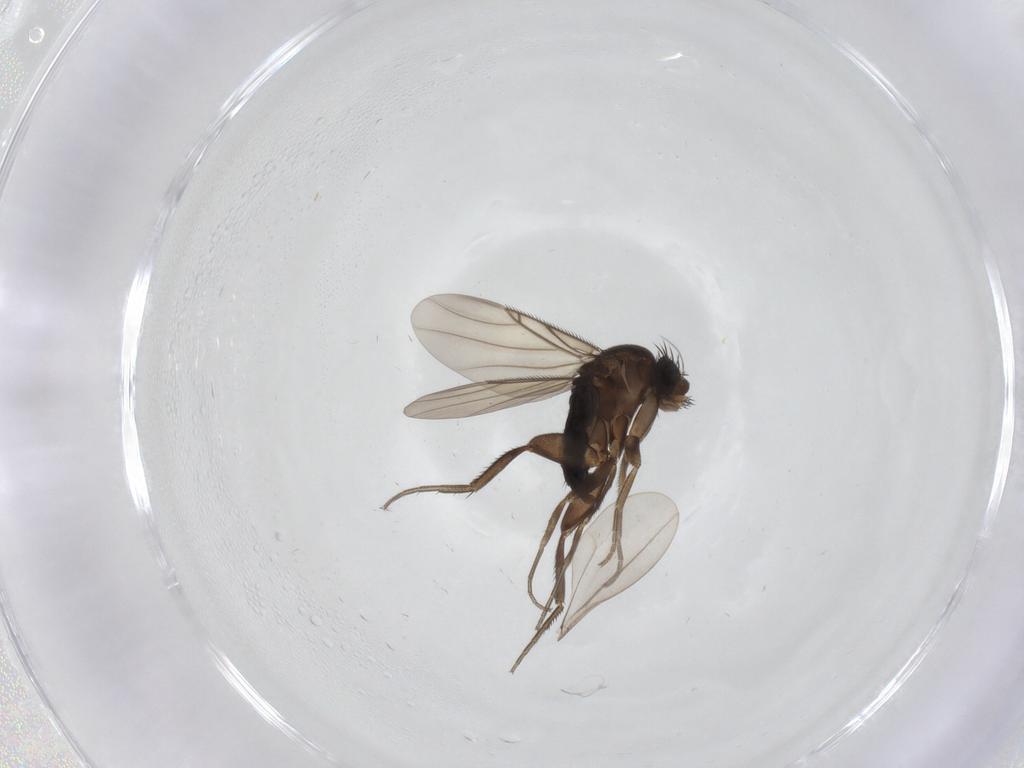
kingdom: Animalia
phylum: Arthropoda
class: Insecta
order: Diptera
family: Phoridae
